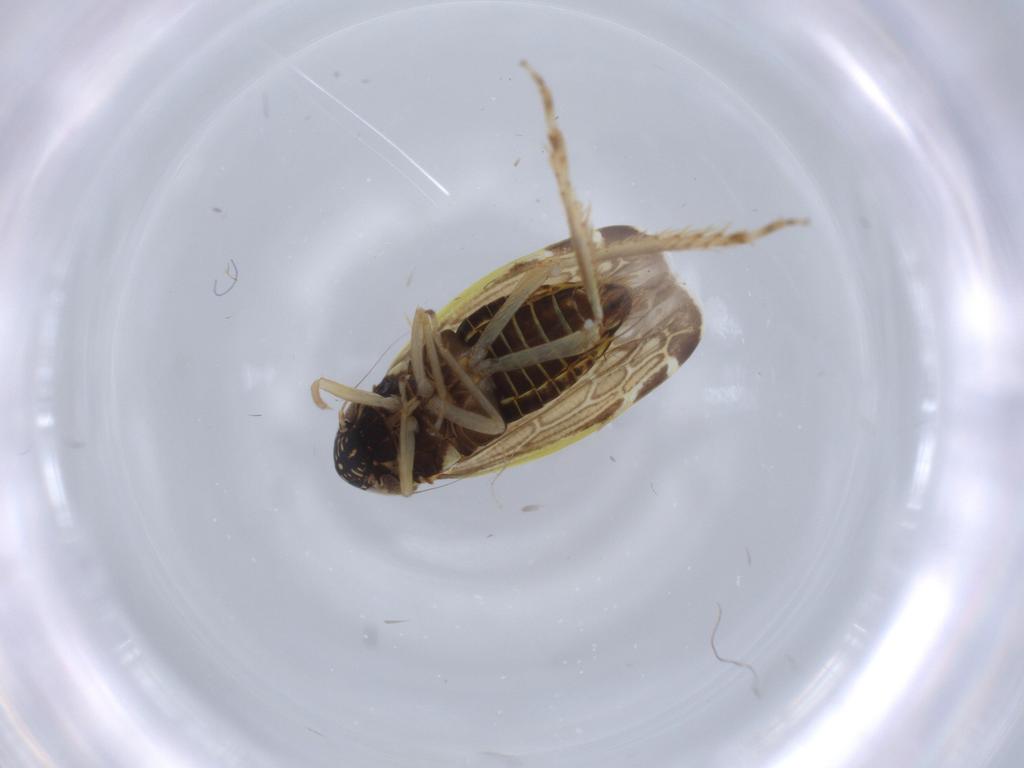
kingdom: Animalia
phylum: Arthropoda
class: Insecta
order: Hemiptera
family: Cicadellidae
